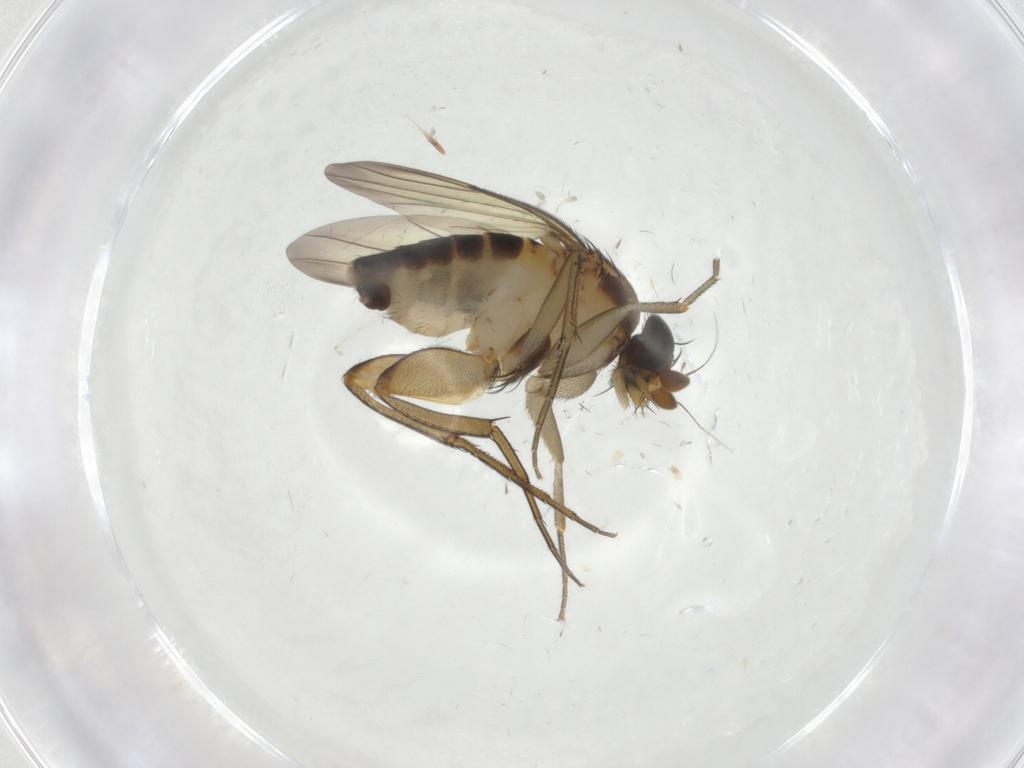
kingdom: Animalia
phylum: Arthropoda
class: Insecta
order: Diptera
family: Phoridae
